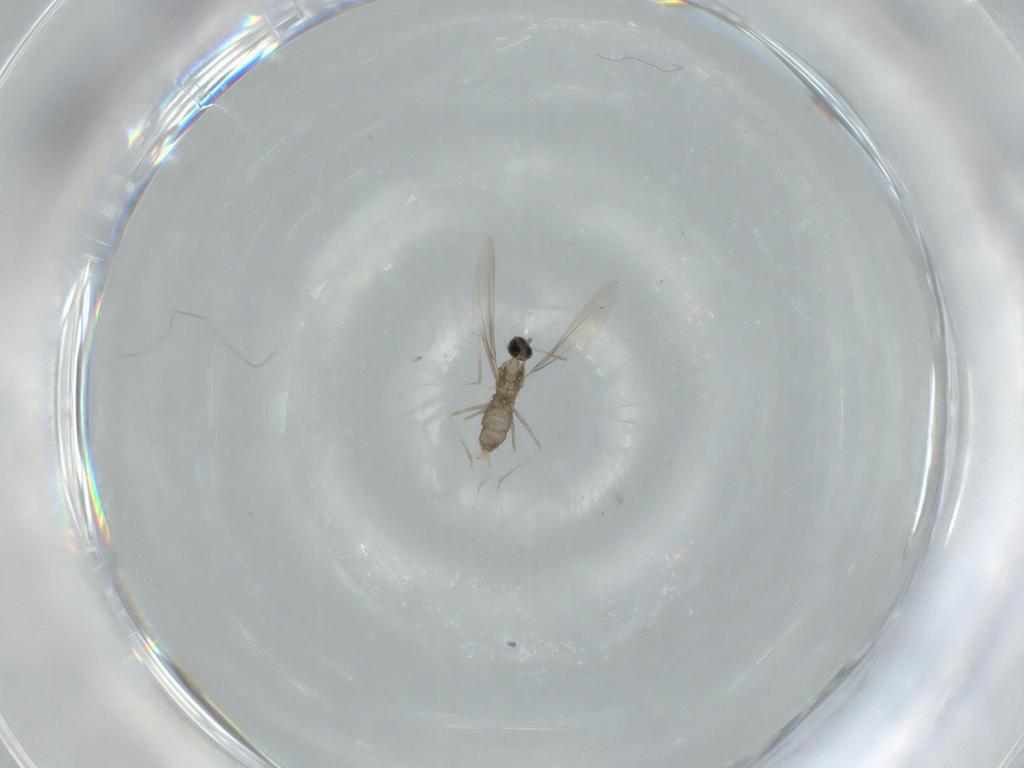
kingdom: Animalia
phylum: Arthropoda
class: Insecta
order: Diptera
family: Cecidomyiidae
